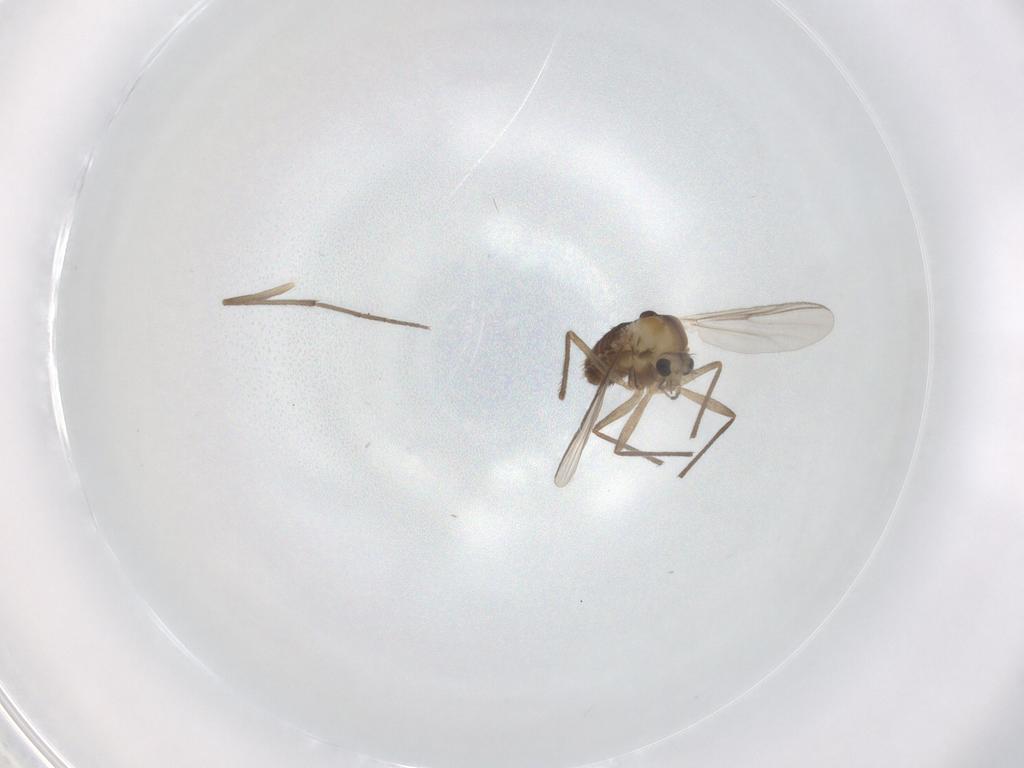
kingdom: Animalia
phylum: Arthropoda
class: Insecta
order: Diptera
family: Chironomidae
